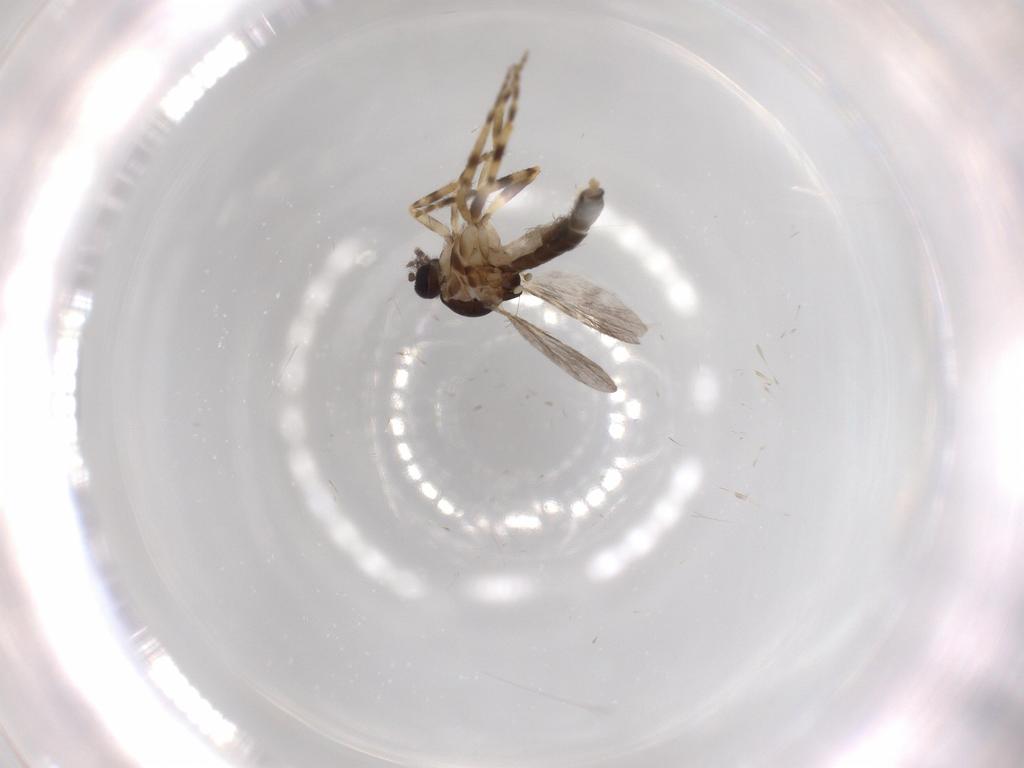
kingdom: Animalia
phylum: Arthropoda
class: Insecta
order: Diptera
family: Cecidomyiidae
